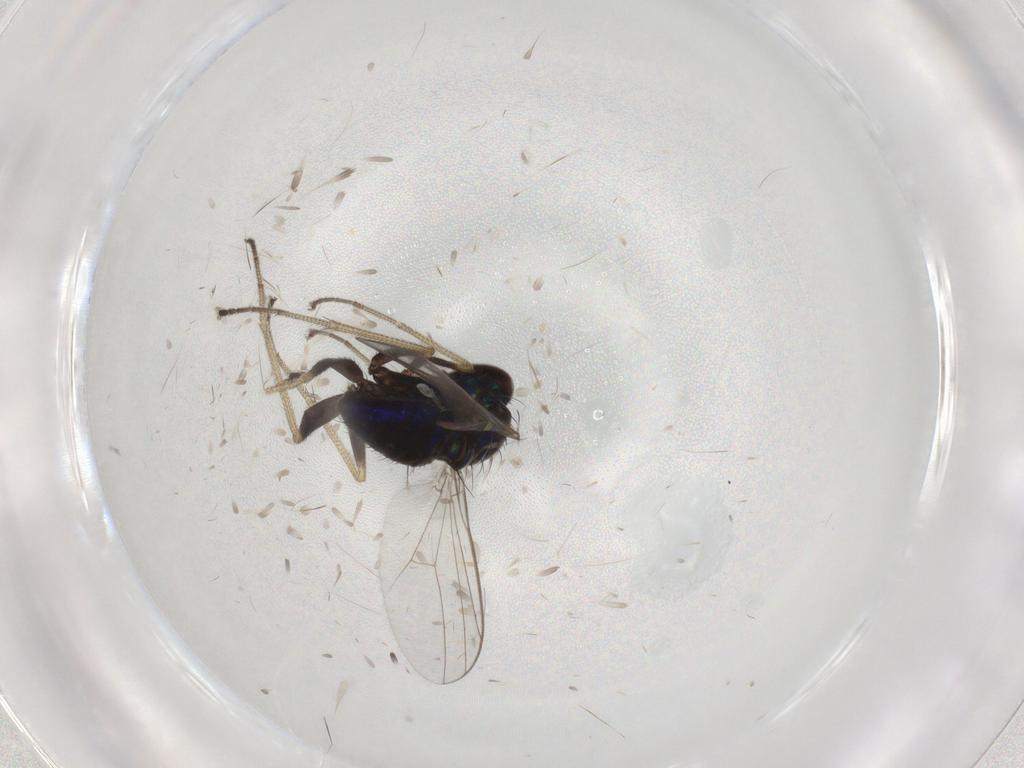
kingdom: Animalia
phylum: Arthropoda
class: Insecta
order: Diptera
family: Dolichopodidae
